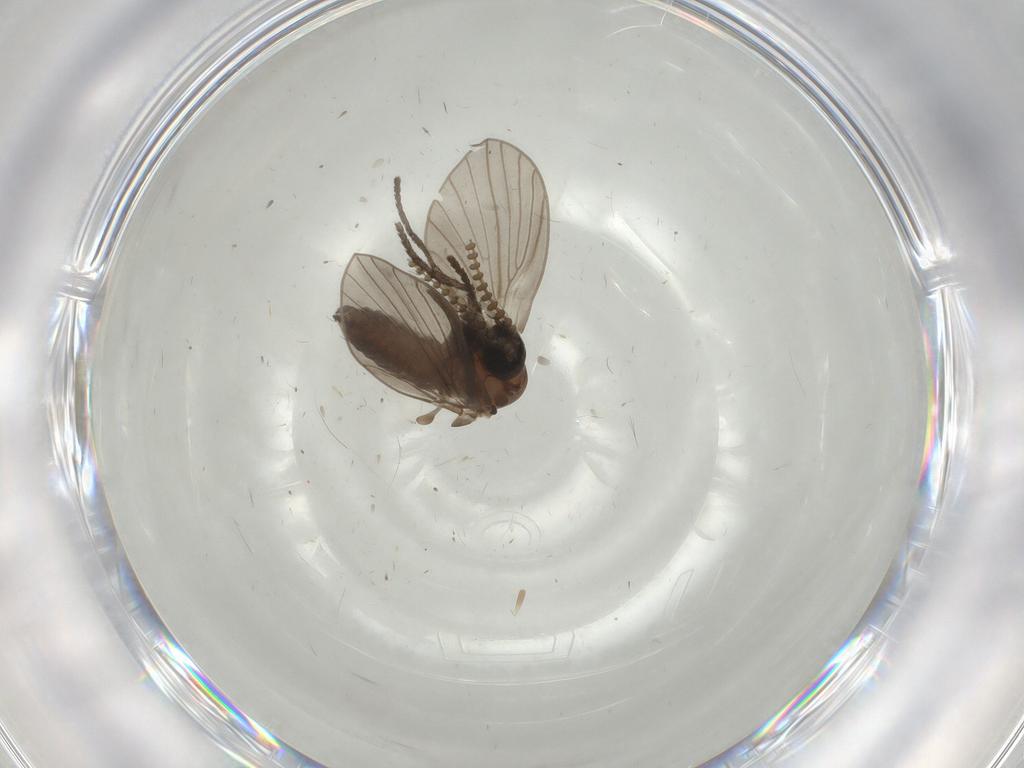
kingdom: Animalia
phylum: Arthropoda
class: Insecta
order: Diptera
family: Psychodidae
